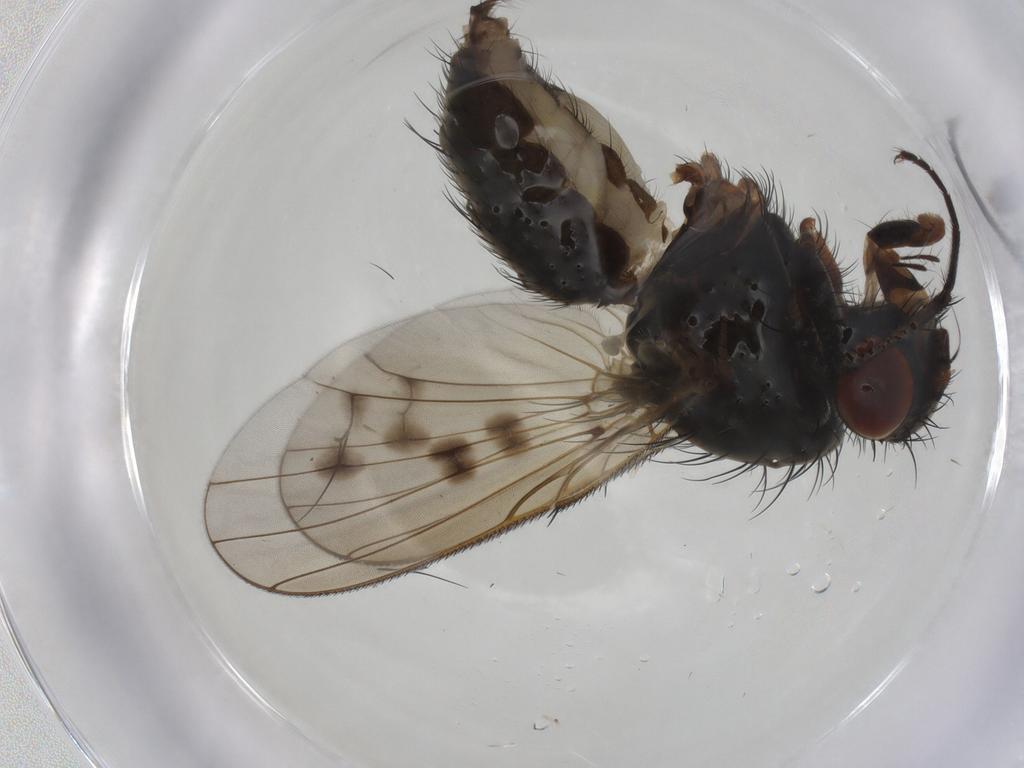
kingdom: Animalia
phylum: Arthropoda
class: Insecta
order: Diptera
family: Anthomyiidae
